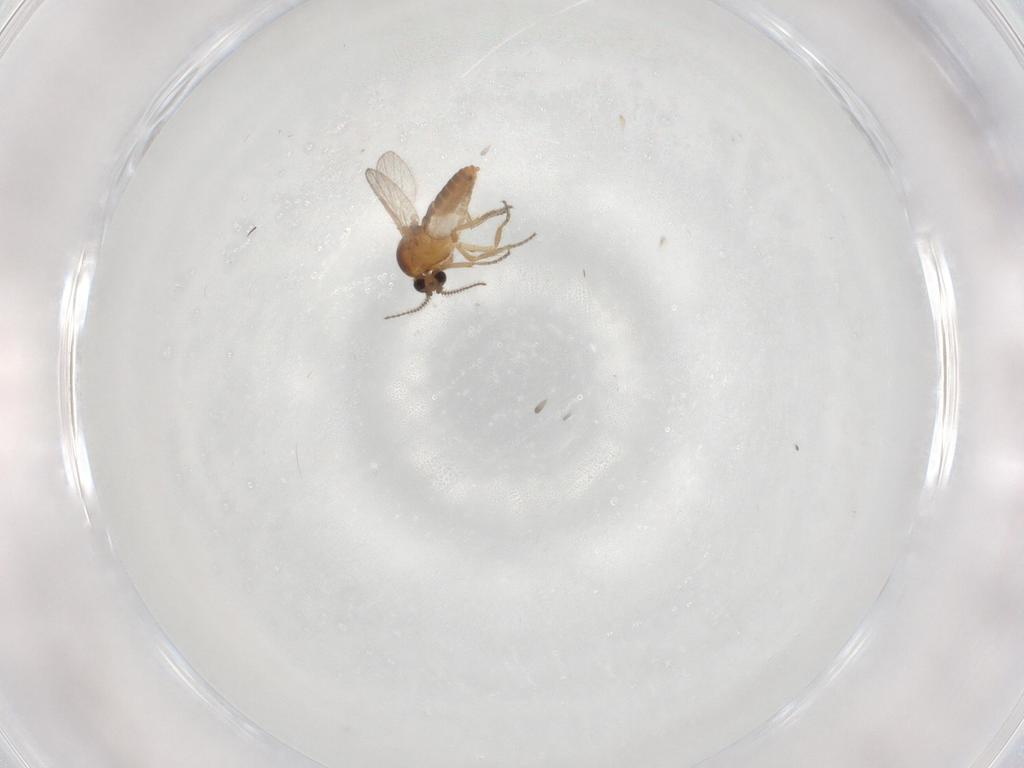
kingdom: Animalia
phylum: Arthropoda
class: Insecta
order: Diptera
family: Ceratopogonidae
